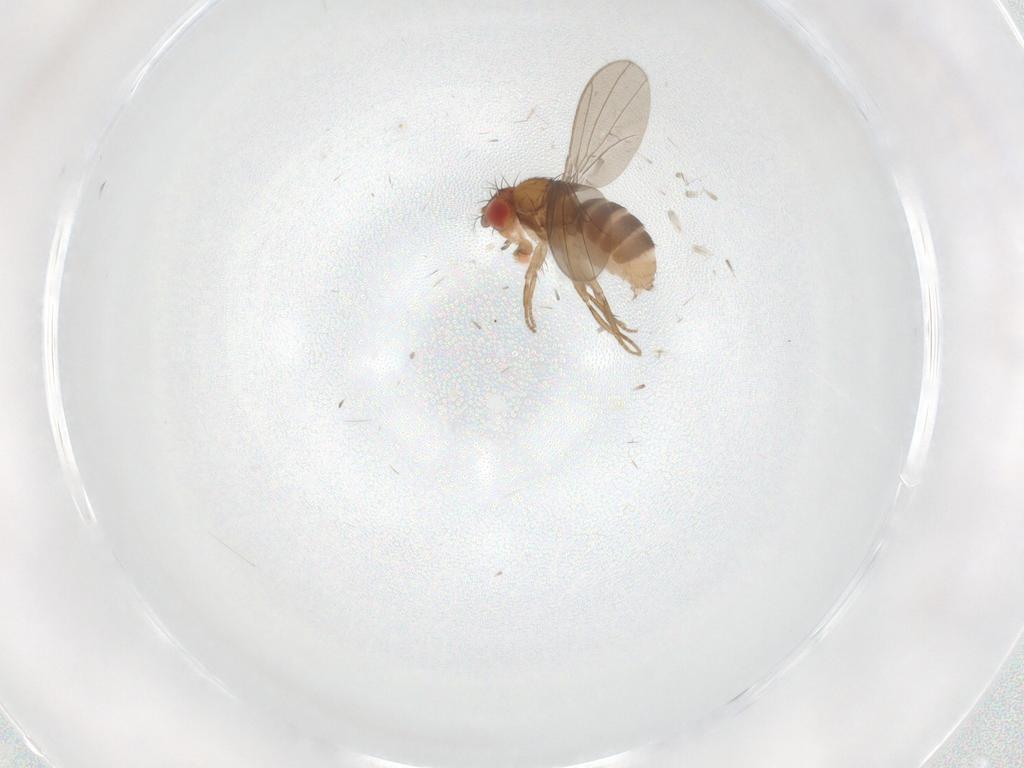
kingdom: Animalia
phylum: Arthropoda
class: Insecta
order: Diptera
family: Drosophilidae
